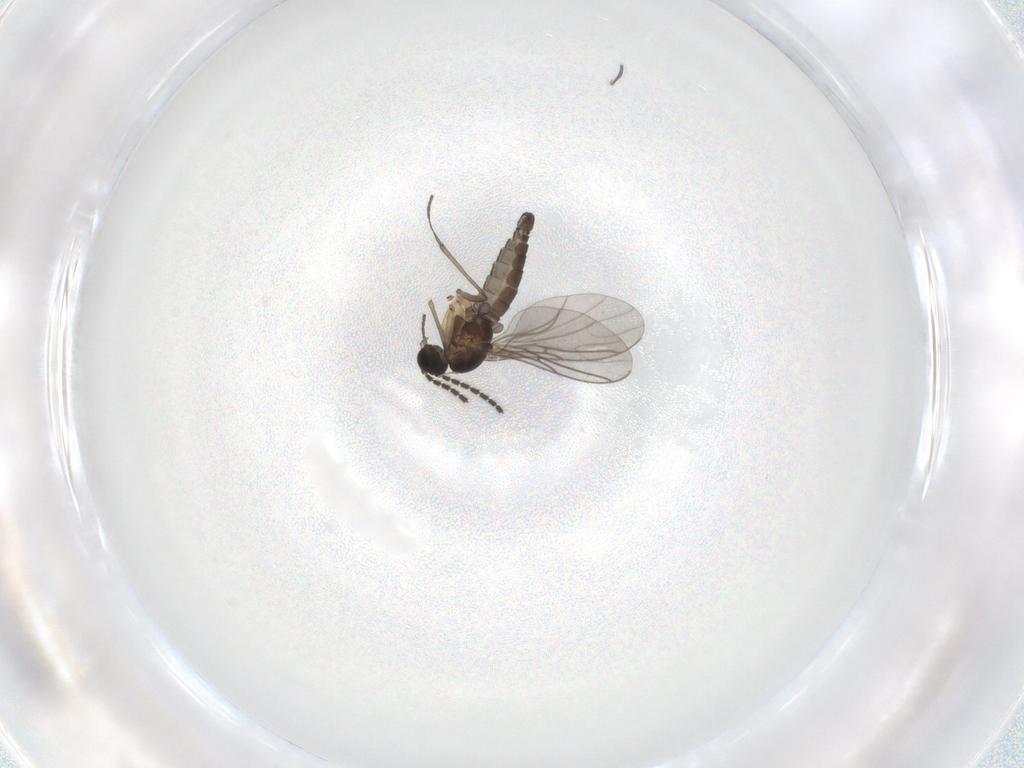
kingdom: Animalia
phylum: Arthropoda
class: Insecta
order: Diptera
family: Sciaridae
